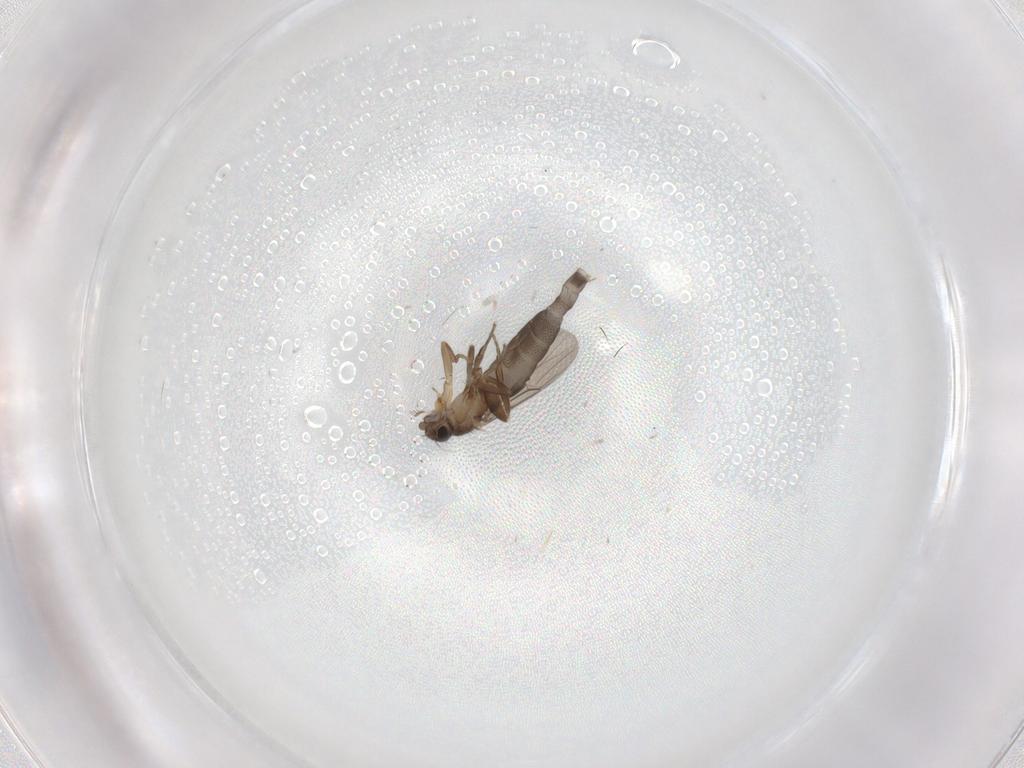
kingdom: Animalia
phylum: Arthropoda
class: Insecta
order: Diptera
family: Phoridae
